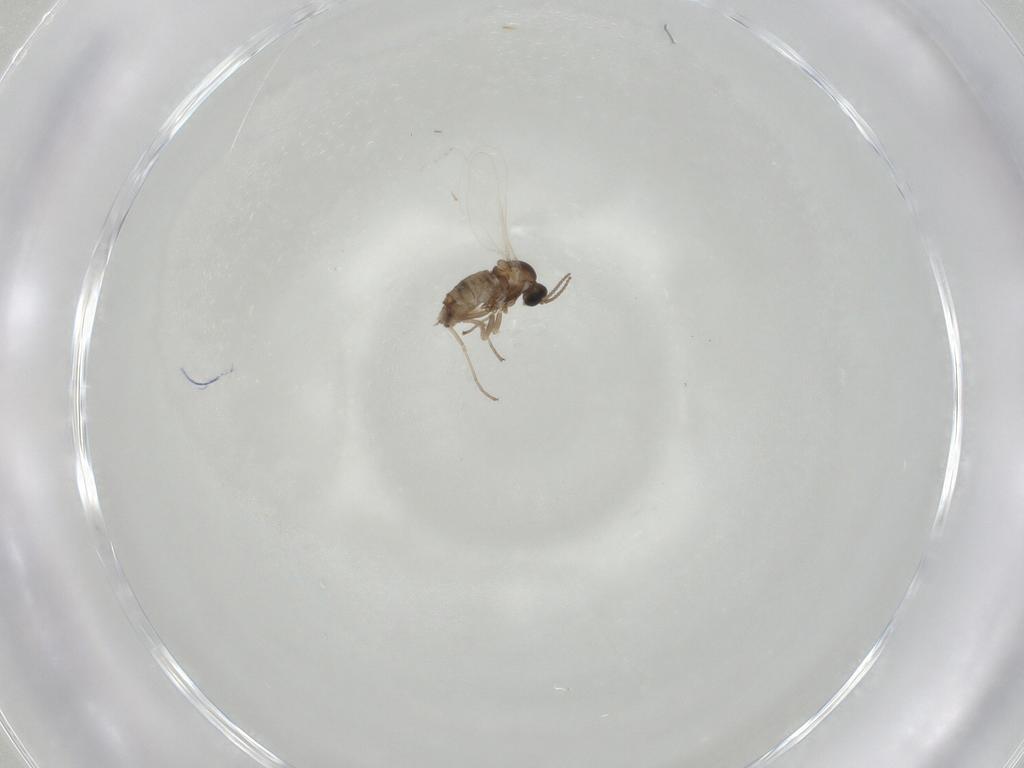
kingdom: Animalia
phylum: Arthropoda
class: Insecta
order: Diptera
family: Cecidomyiidae
